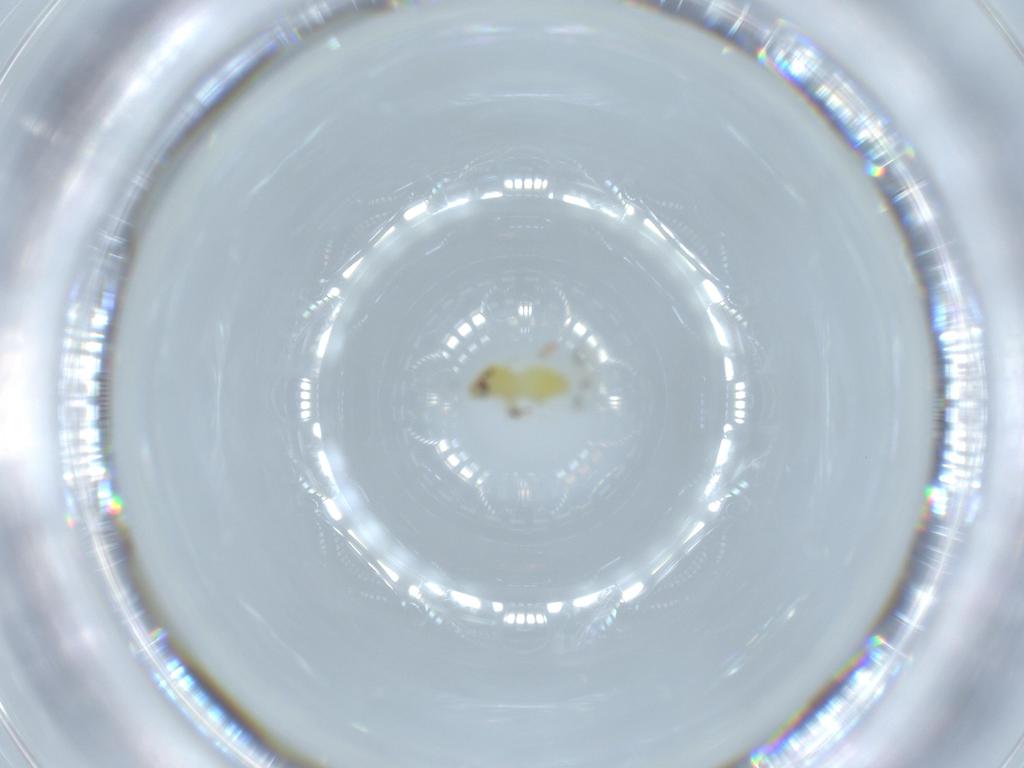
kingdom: Animalia
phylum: Arthropoda
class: Insecta
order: Hemiptera
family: Aleyrodidae
